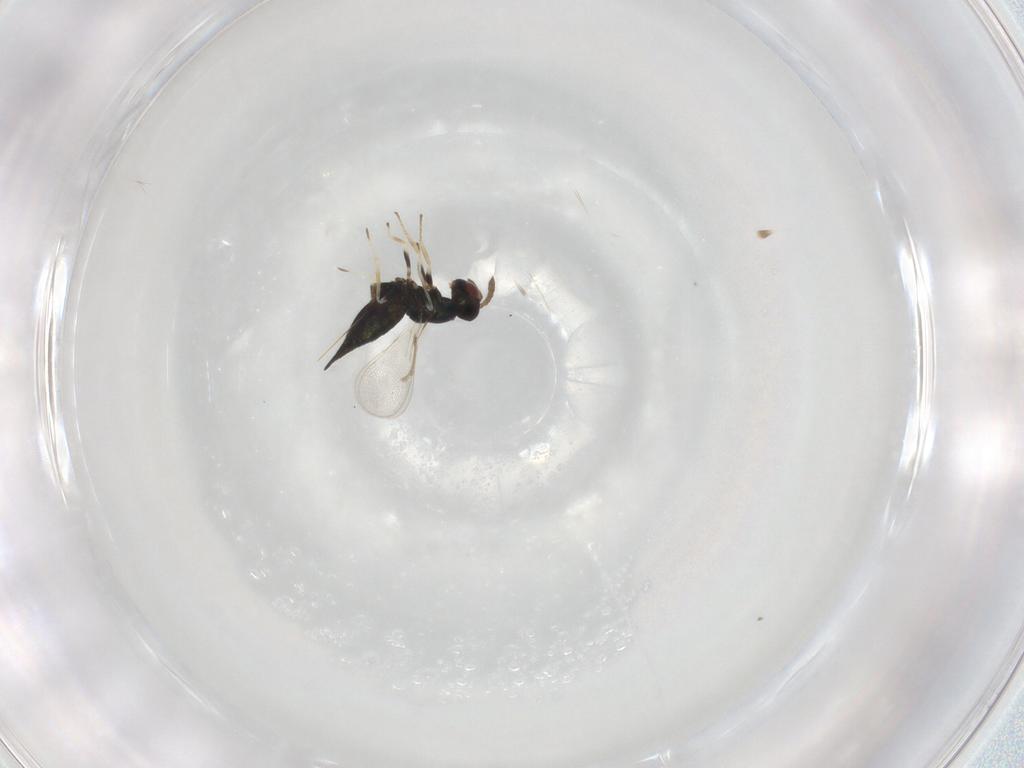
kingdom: Animalia
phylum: Arthropoda
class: Insecta
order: Hymenoptera
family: Eulophidae
